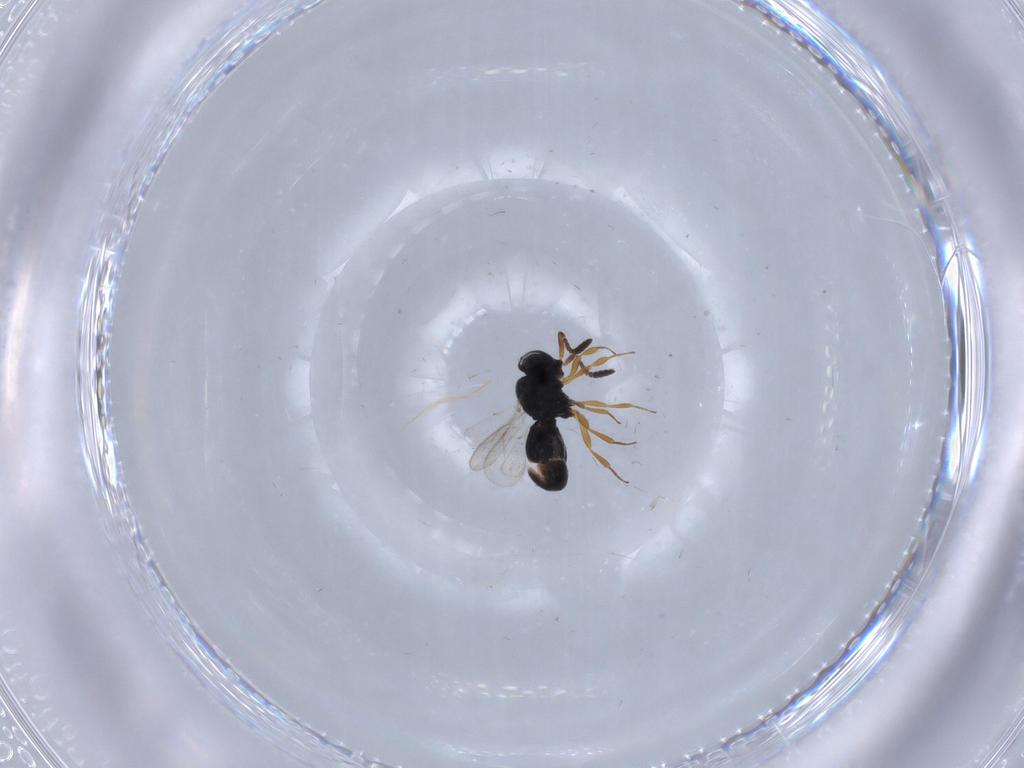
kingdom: Animalia
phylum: Arthropoda
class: Insecta
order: Hymenoptera
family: Scelionidae
